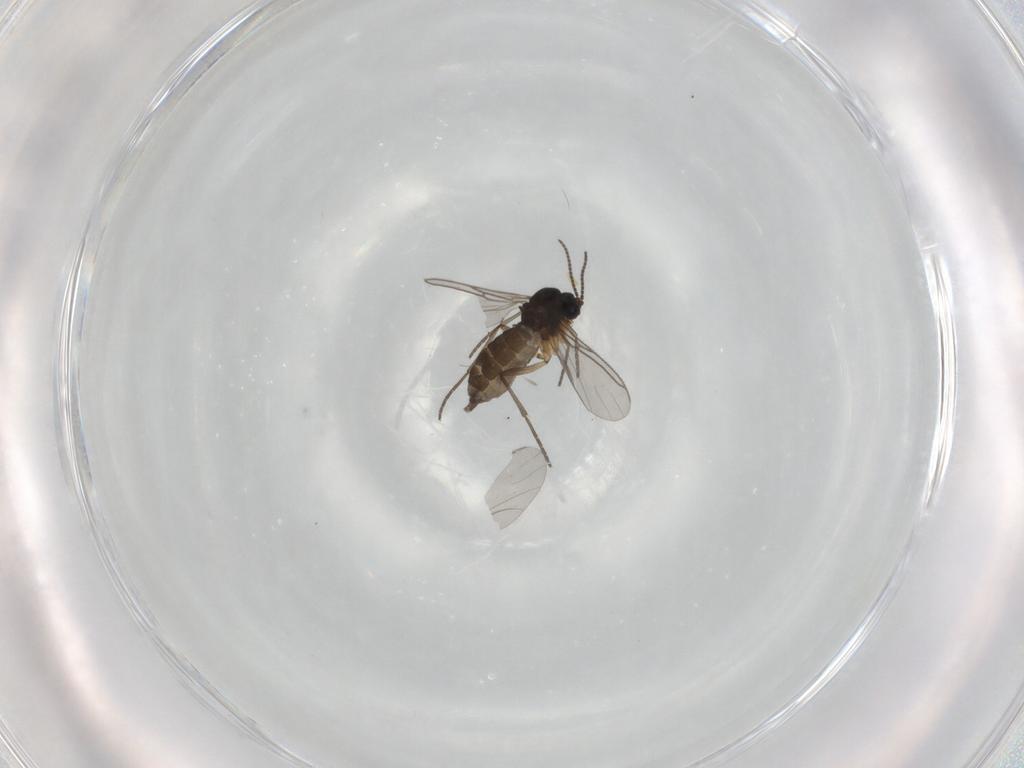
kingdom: Animalia
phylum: Arthropoda
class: Insecta
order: Diptera
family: Sciaridae
